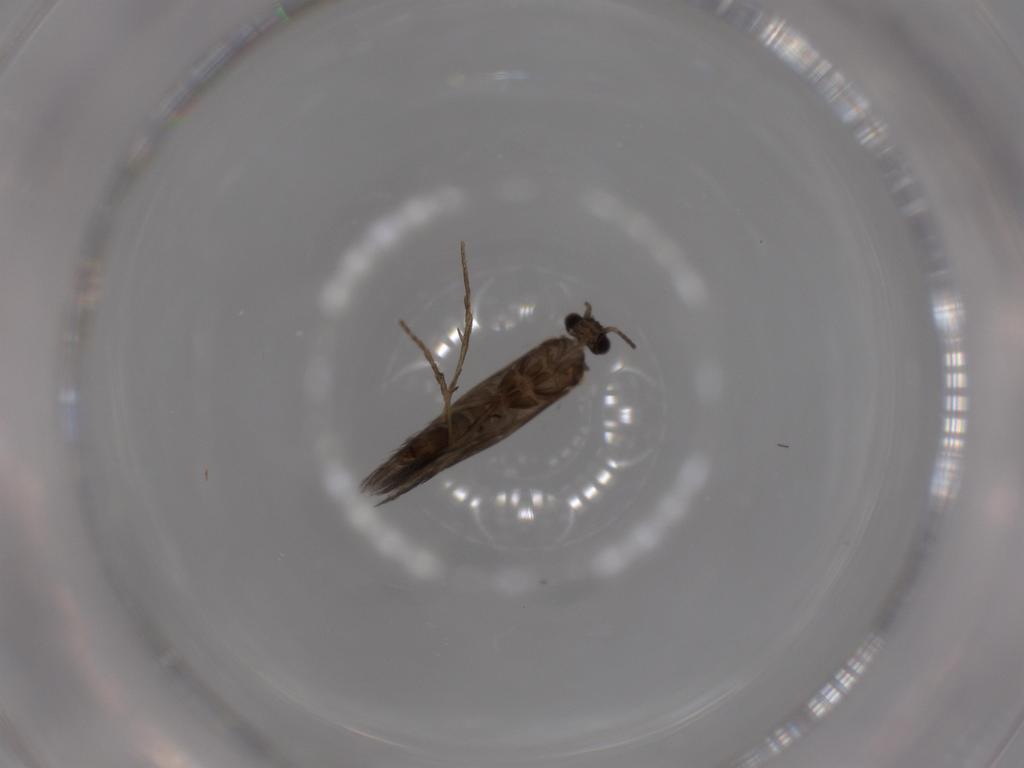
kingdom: Animalia
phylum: Arthropoda
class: Insecta
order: Trichoptera
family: Hydroptilidae
